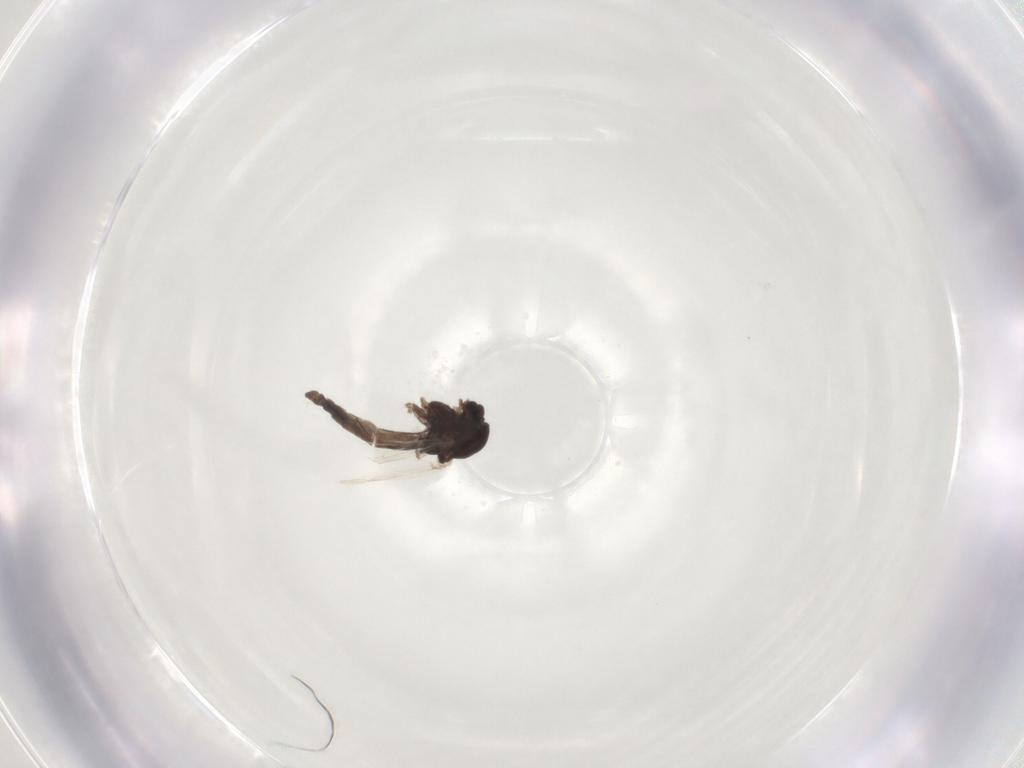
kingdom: Animalia
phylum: Arthropoda
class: Insecta
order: Diptera
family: Chironomidae
